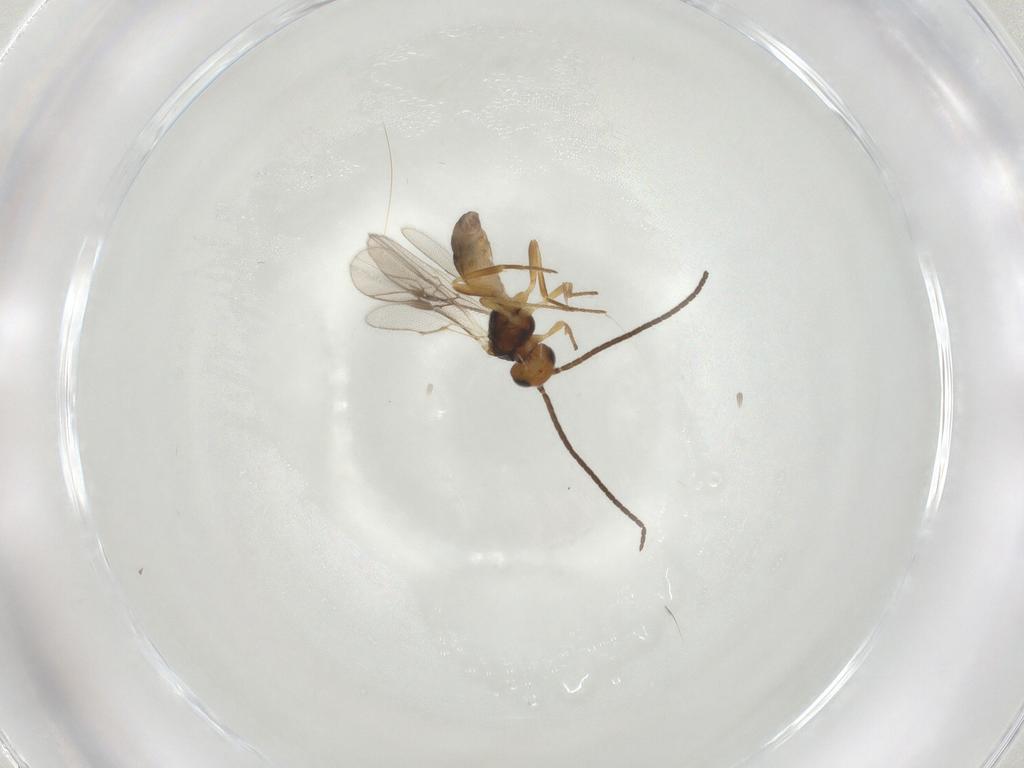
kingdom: Animalia
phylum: Arthropoda
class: Insecta
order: Hymenoptera
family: Braconidae
